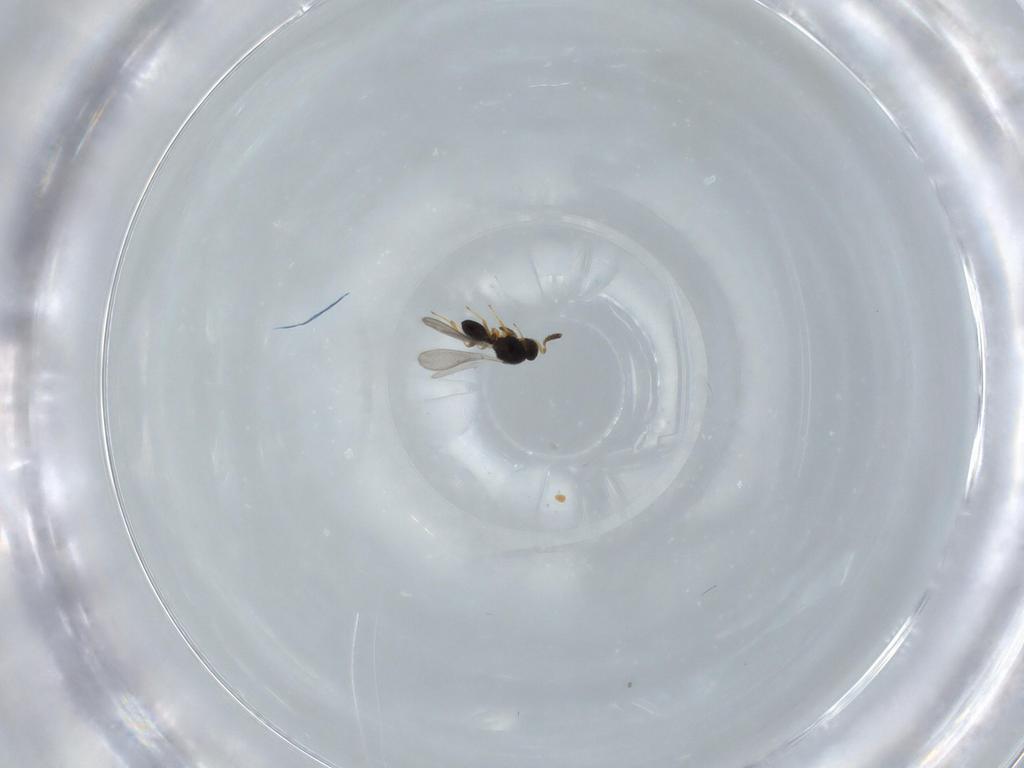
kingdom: Animalia
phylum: Arthropoda
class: Insecta
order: Hymenoptera
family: Platygastridae
